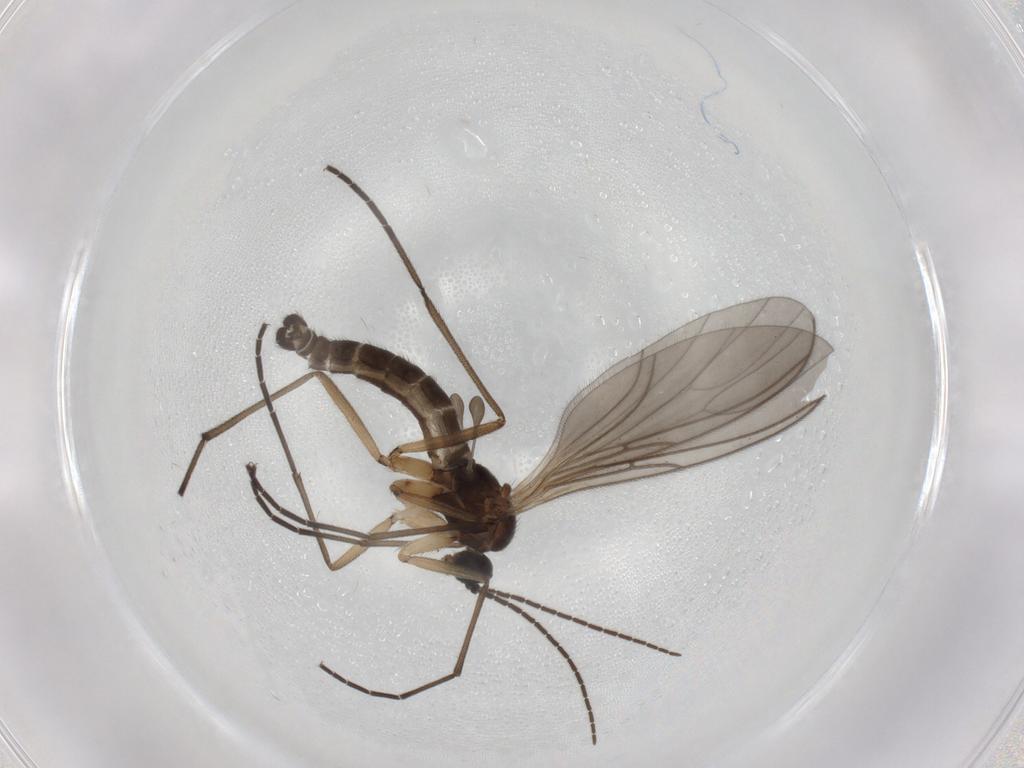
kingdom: Animalia
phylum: Arthropoda
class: Insecta
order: Diptera
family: Sciaridae
